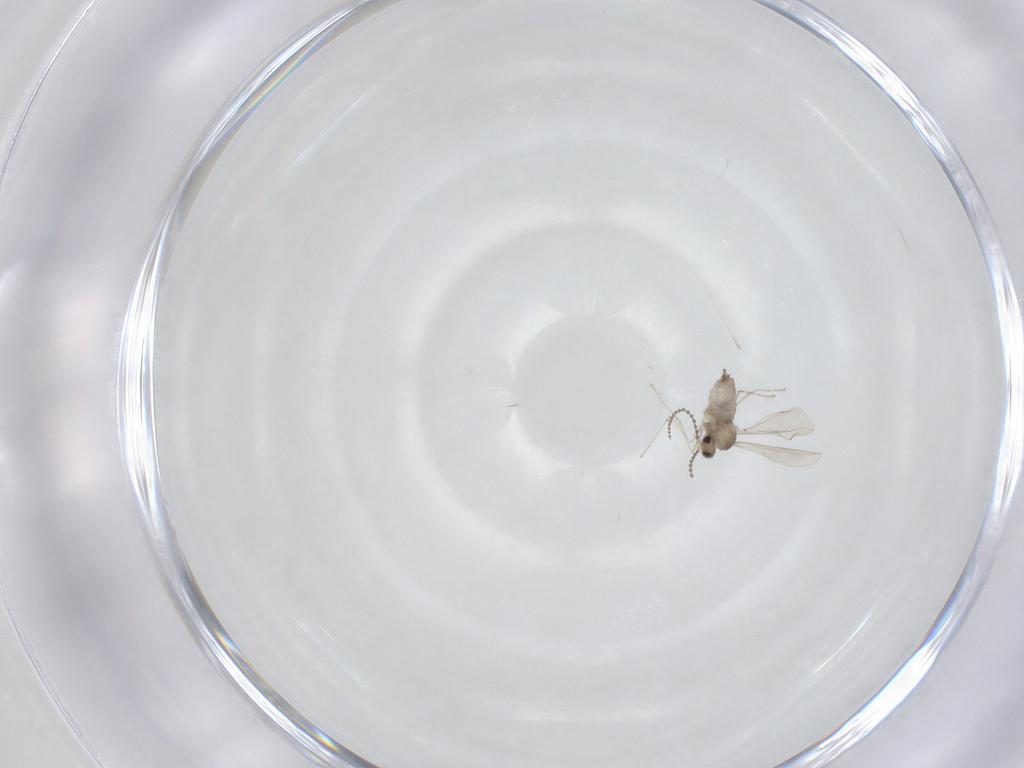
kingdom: Animalia
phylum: Arthropoda
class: Insecta
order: Diptera
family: Cecidomyiidae
